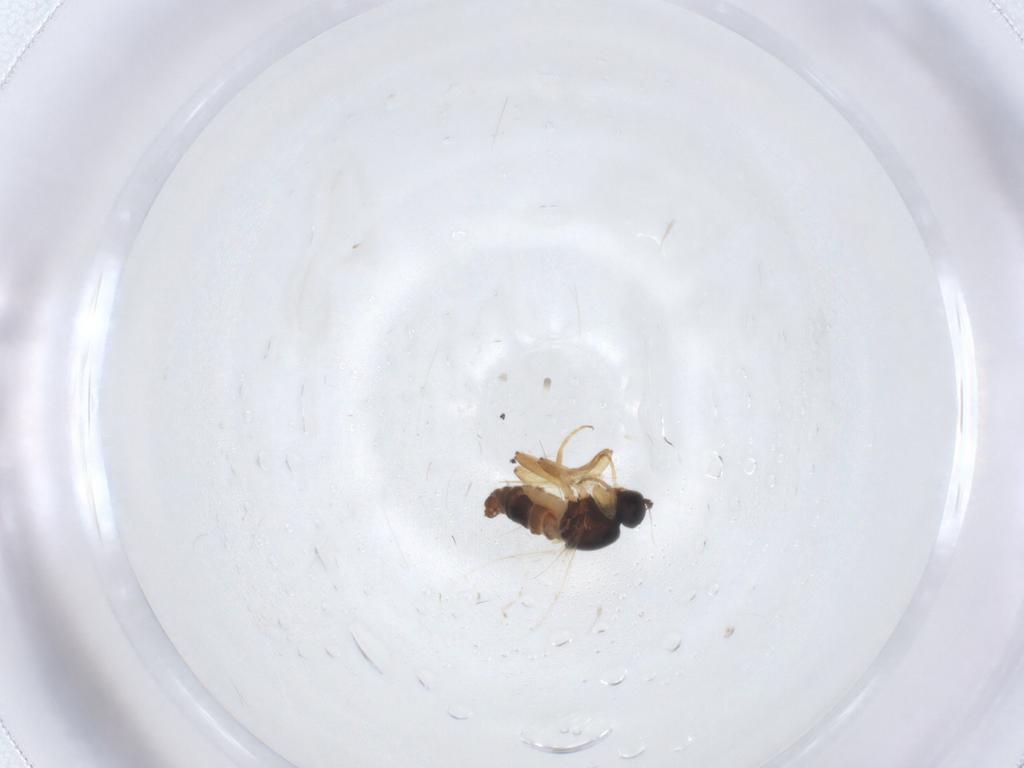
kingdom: Animalia
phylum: Arthropoda
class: Insecta
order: Diptera
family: Hybotidae
